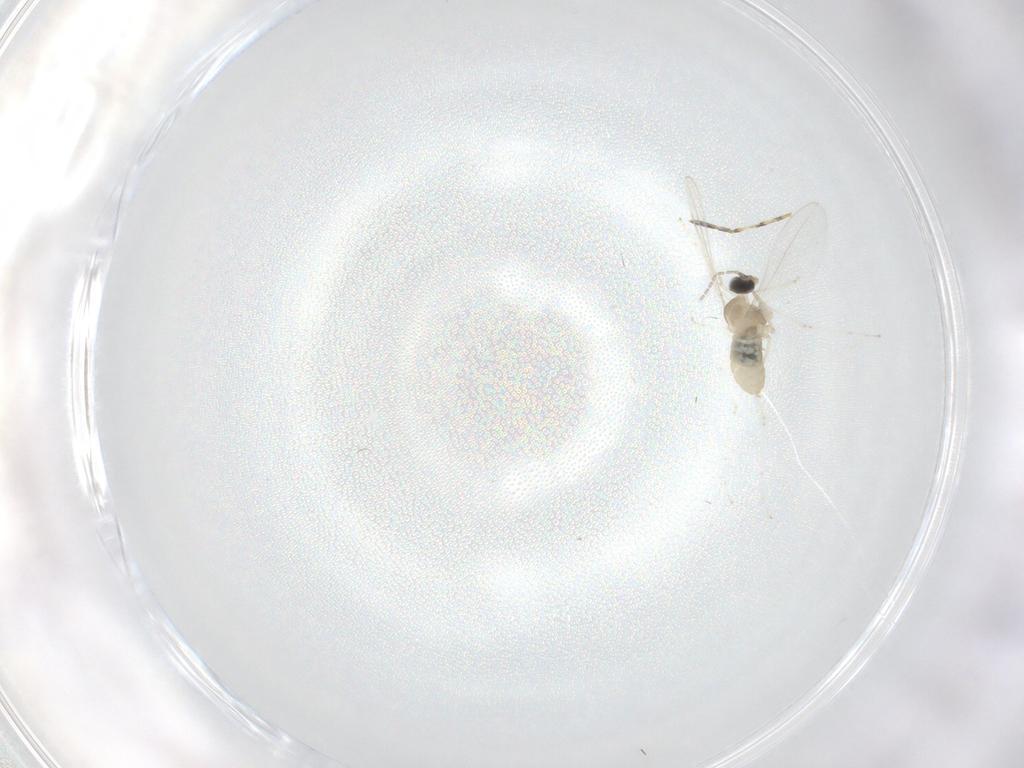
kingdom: Animalia
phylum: Arthropoda
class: Insecta
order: Diptera
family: Cecidomyiidae
